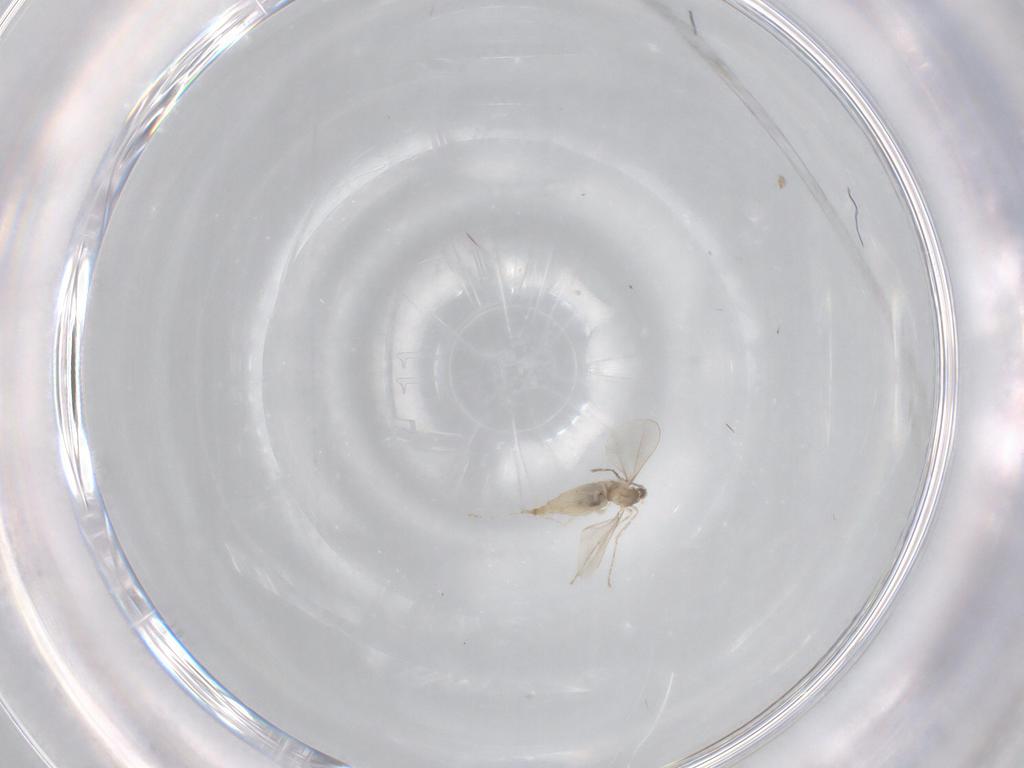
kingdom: Animalia
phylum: Arthropoda
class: Insecta
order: Diptera
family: Cecidomyiidae
